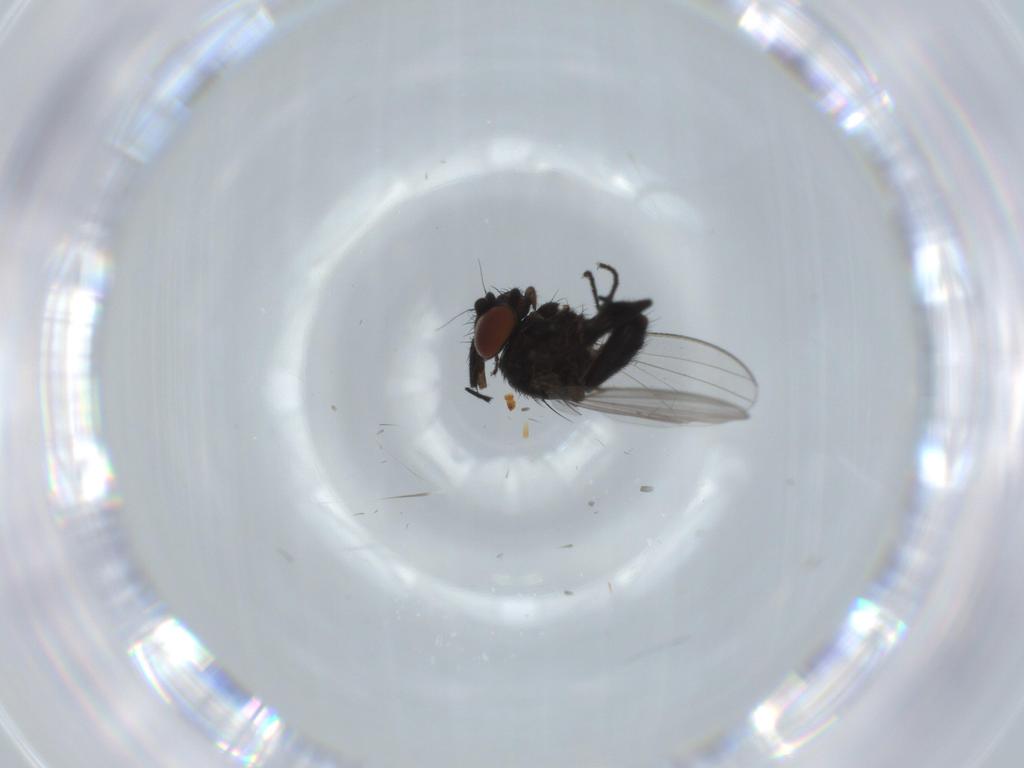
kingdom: Animalia
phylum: Arthropoda
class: Insecta
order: Diptera
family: Milichiidae
